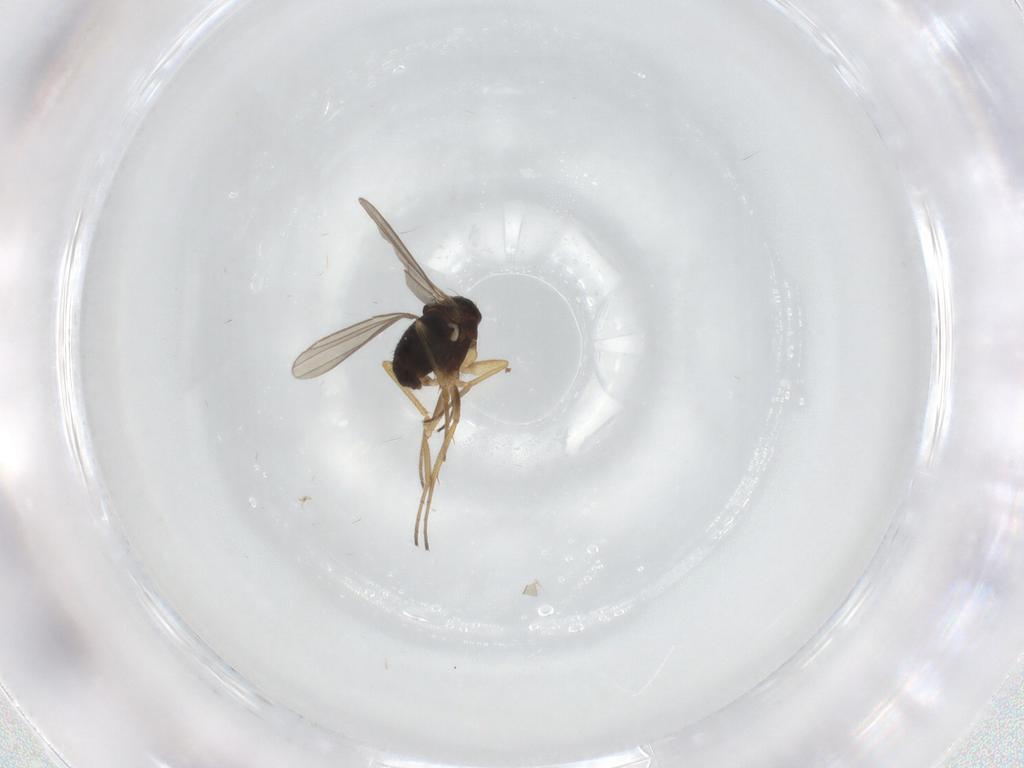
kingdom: Animalia
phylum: Arthropoda
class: Insecta
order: Diptera
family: Dolichopodidae
